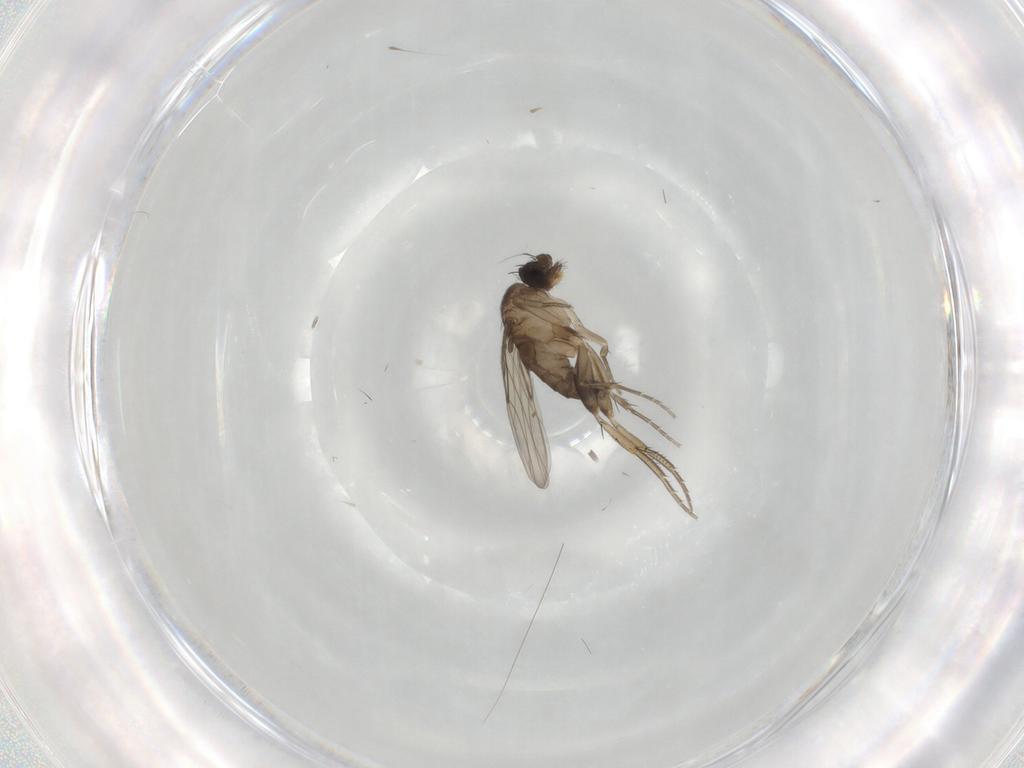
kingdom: Animalia
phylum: Arthropoda
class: Insecta
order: Diptera
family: Phoridae
